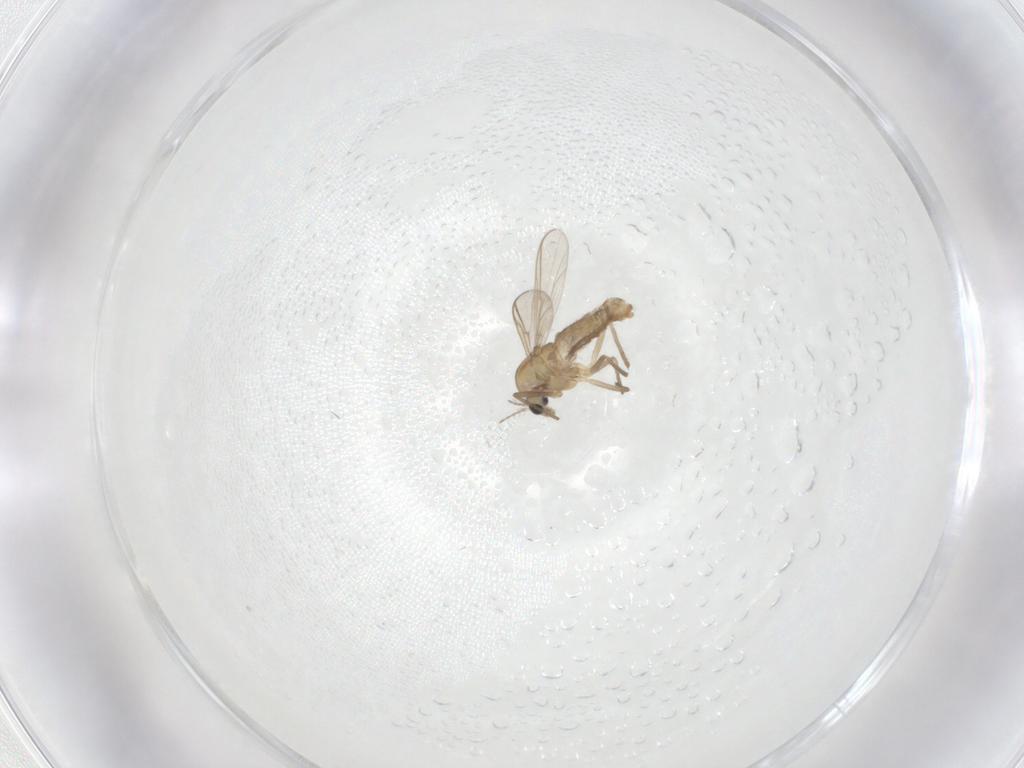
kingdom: Animalia
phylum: Arthropoda
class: Insecta
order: Diptera
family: Chironomidae
